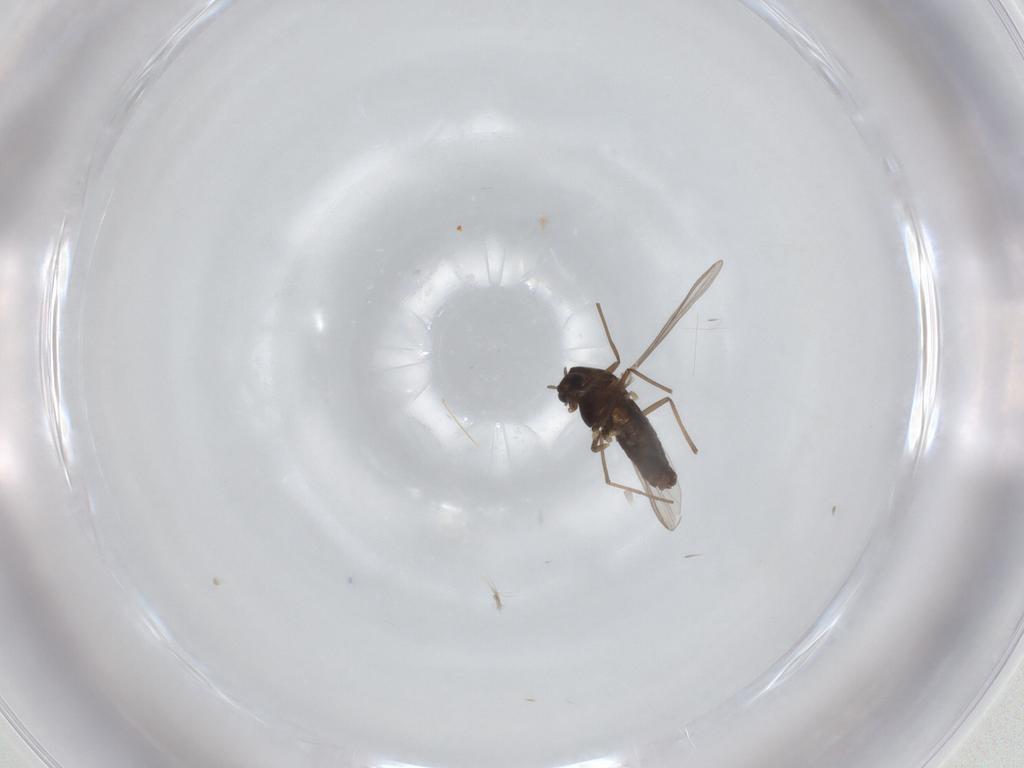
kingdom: Animalia
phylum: Arthropoda
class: Insecta
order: Diptera
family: Chironomidae
